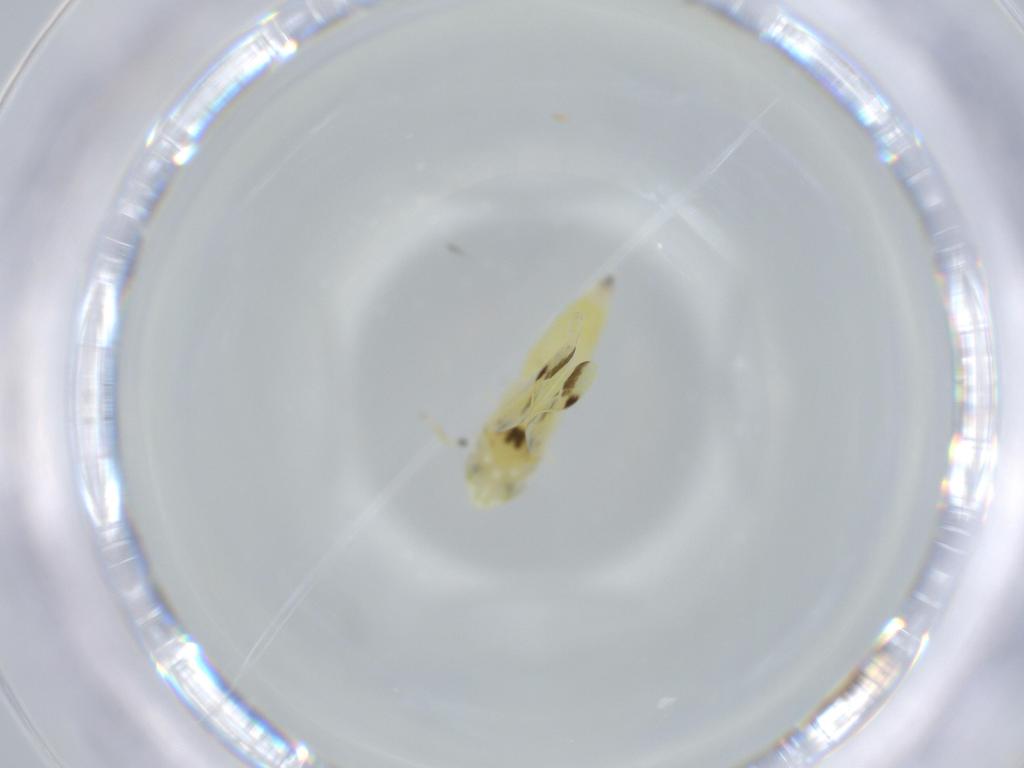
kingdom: Animalia
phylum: Arthropoda
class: Insecta
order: Hemiptera
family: Cicadellidae
